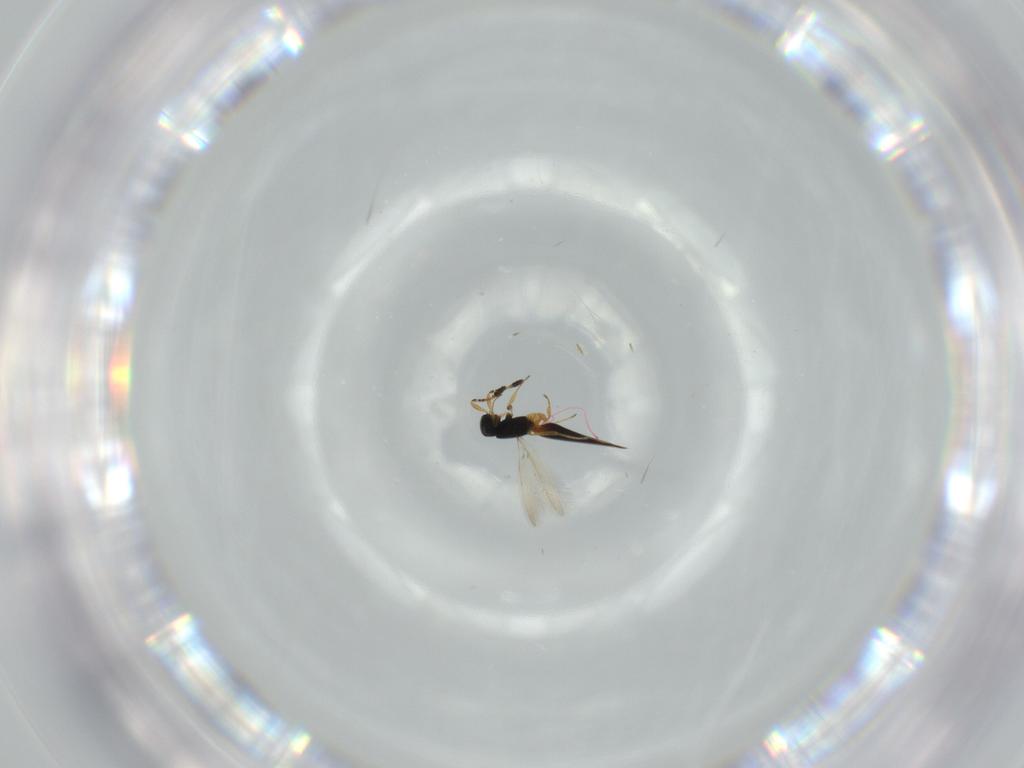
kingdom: Animalia
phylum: Arthropoda
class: Insecta
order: Hymenoptera
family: Scelionidae
